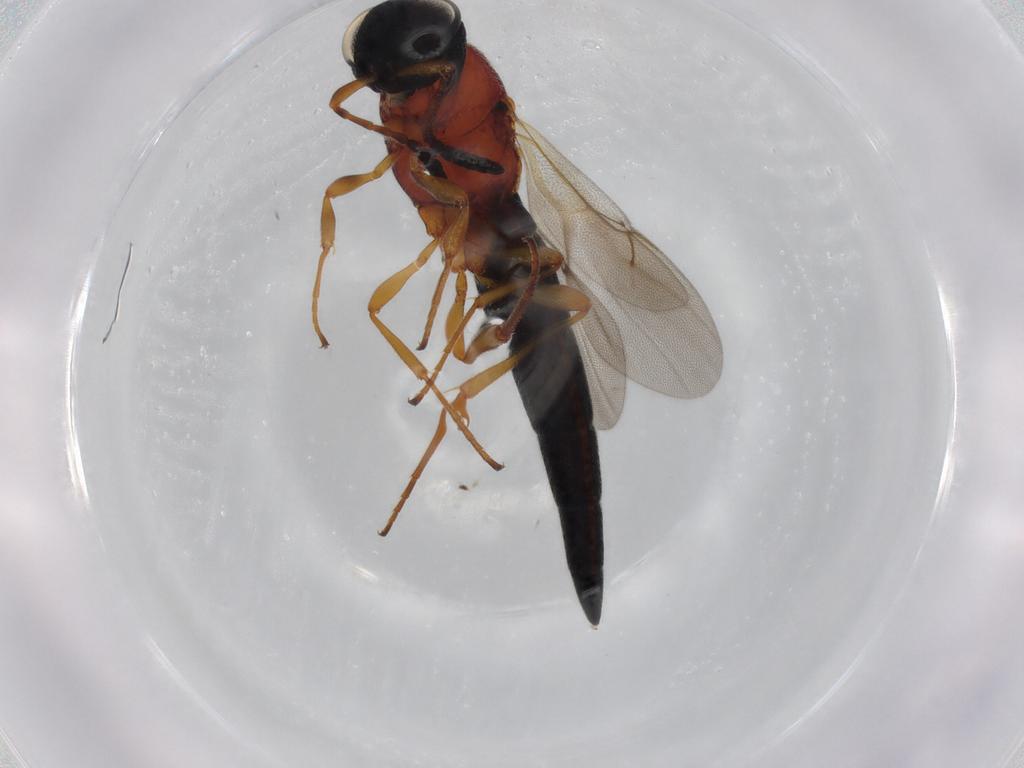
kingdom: Animalia
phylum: Arthropoda
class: Insecta
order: Hymenoptera
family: Scelionidae
